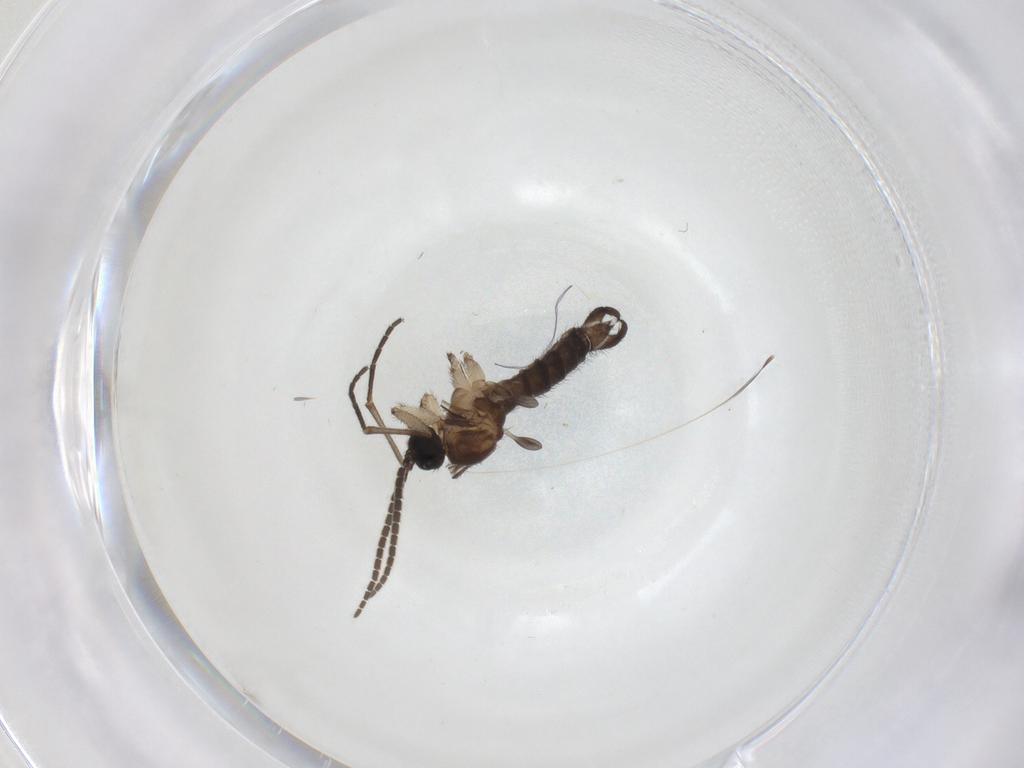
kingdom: Animalia
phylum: Arthropoda
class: Insecta
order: Diptera
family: Sciaridae
